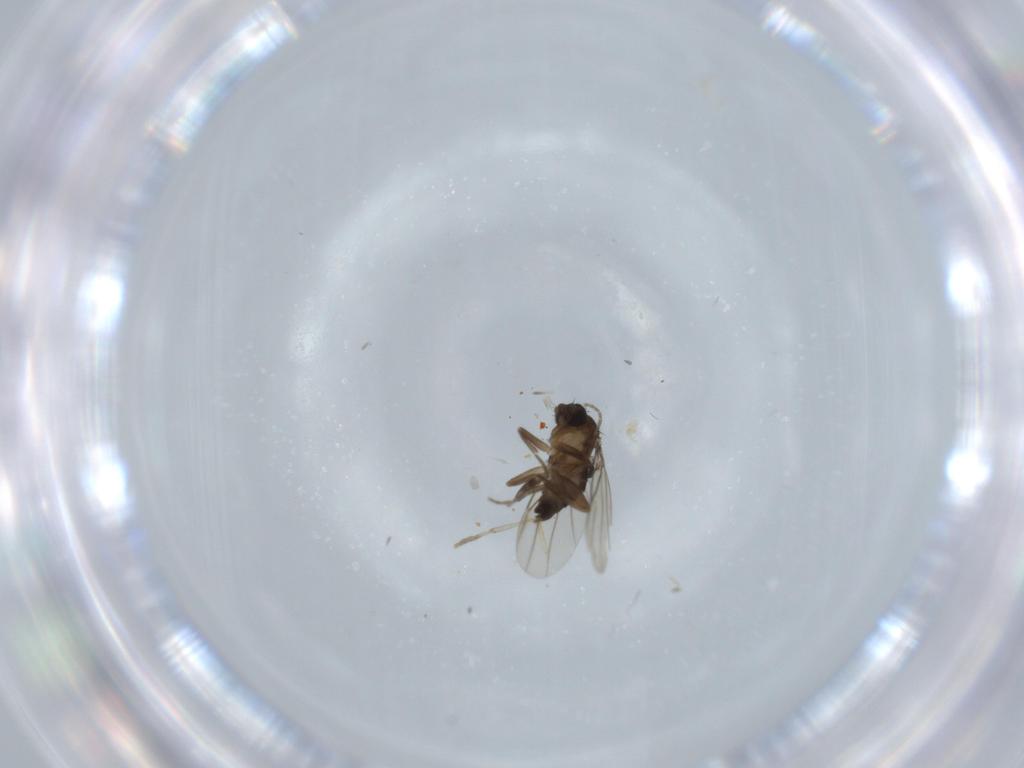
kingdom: Animalia
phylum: Arthropoda
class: Insecta
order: Diptera
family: Phoridae
